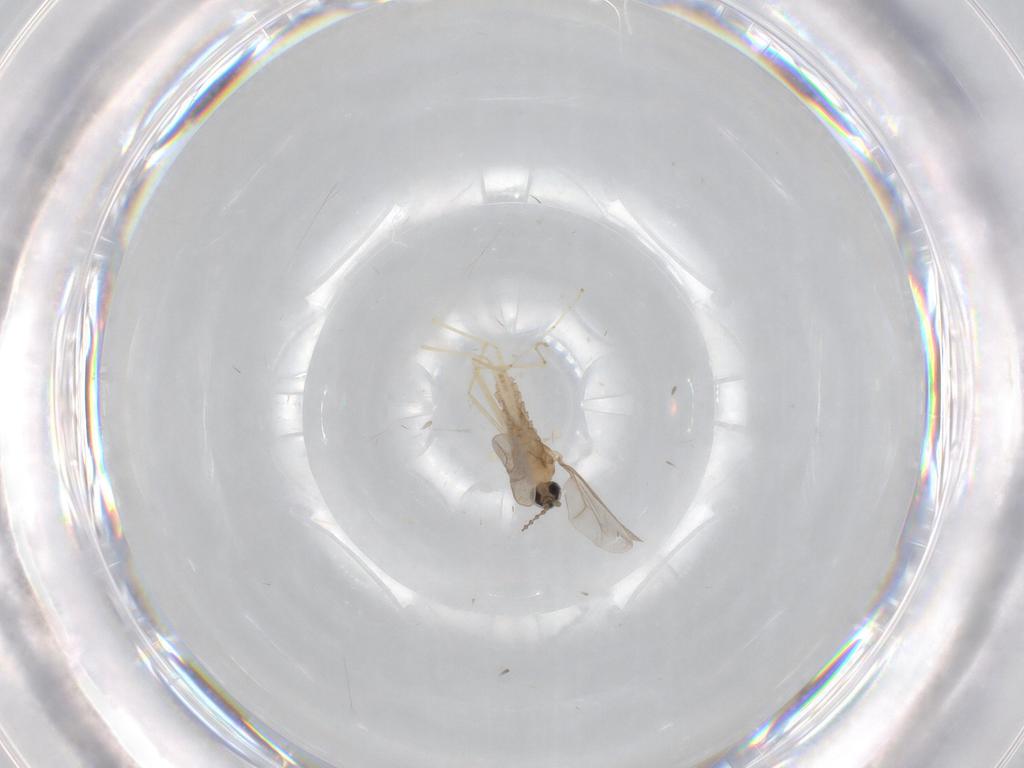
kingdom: Animalia
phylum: Arthropoda
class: Insecta
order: Diptera
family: Cecidomyiidae
